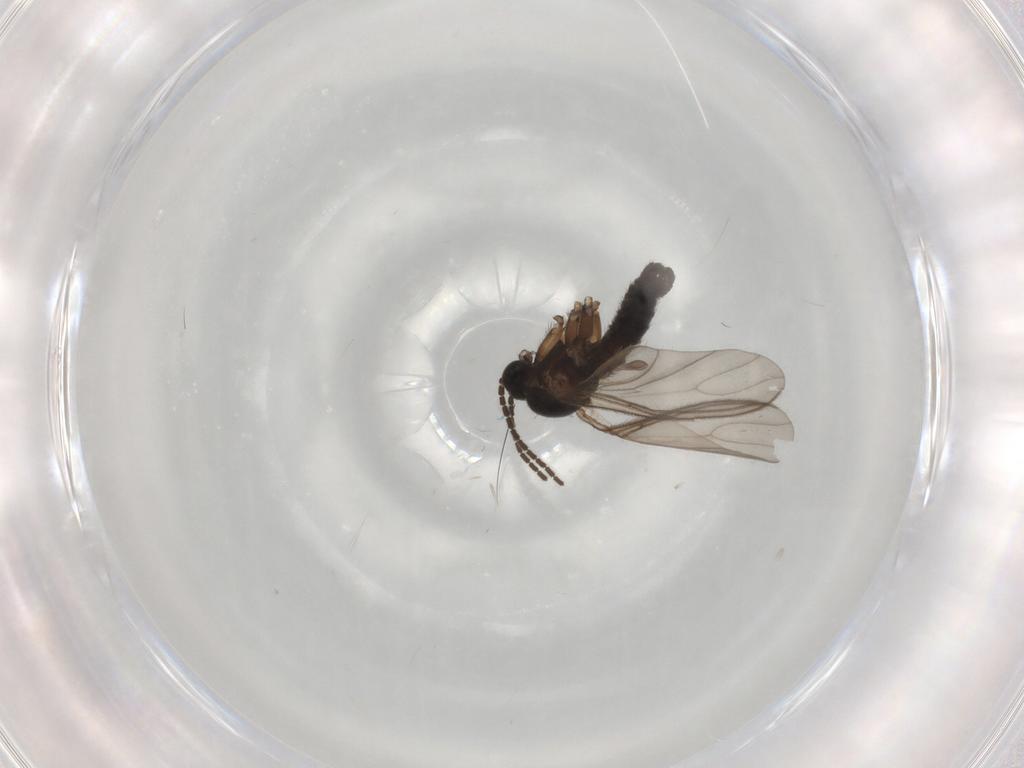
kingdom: Animalia
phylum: Arthropoda
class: Insecta
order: Diptera
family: Sciaridae
